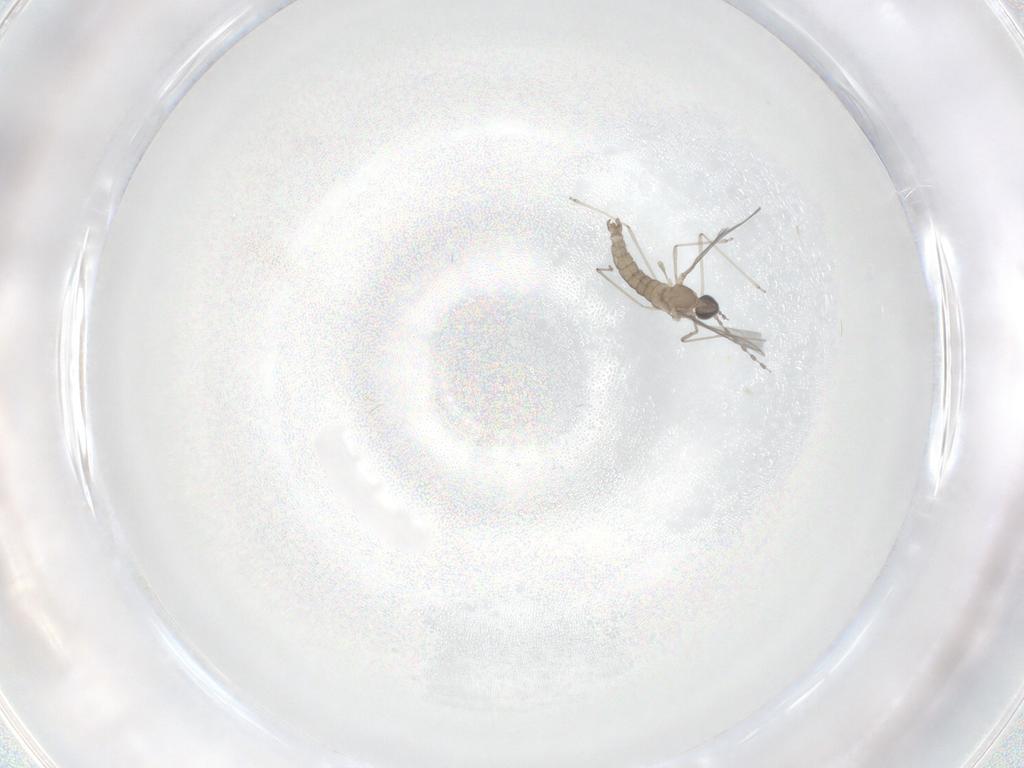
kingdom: Animalia
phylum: Arthropoda
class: Insecta
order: Diptera
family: Cecidomyiidae
